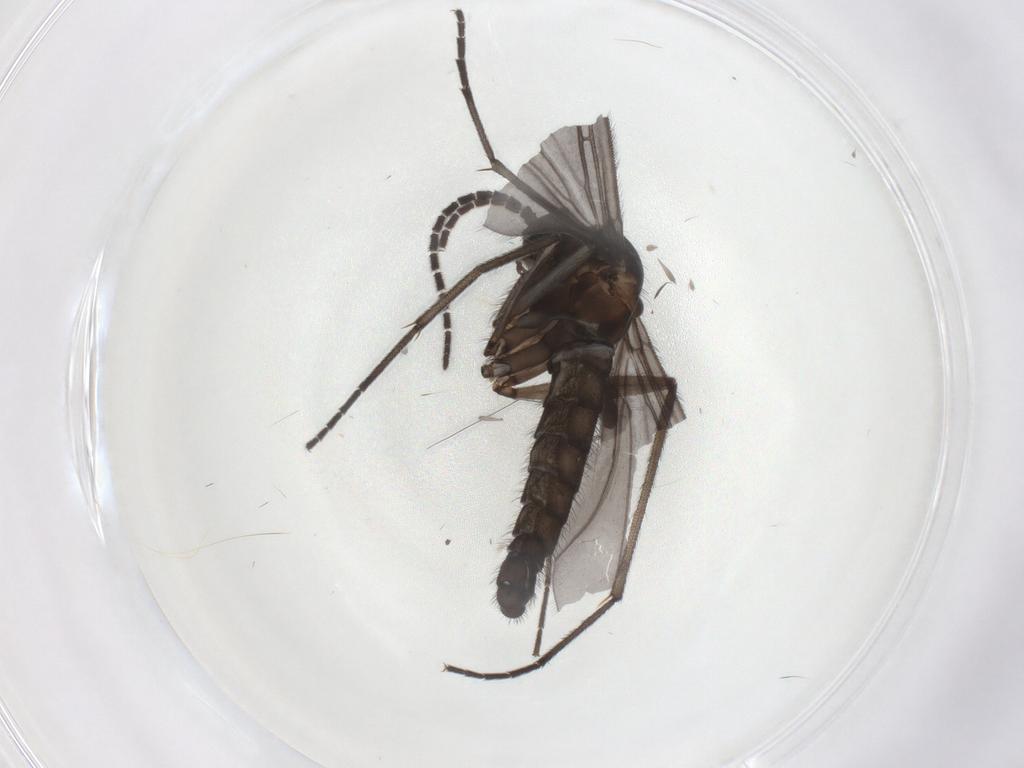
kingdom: Animalia
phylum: Arthropoda
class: Insecta
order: Diptera
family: Sciaridae
